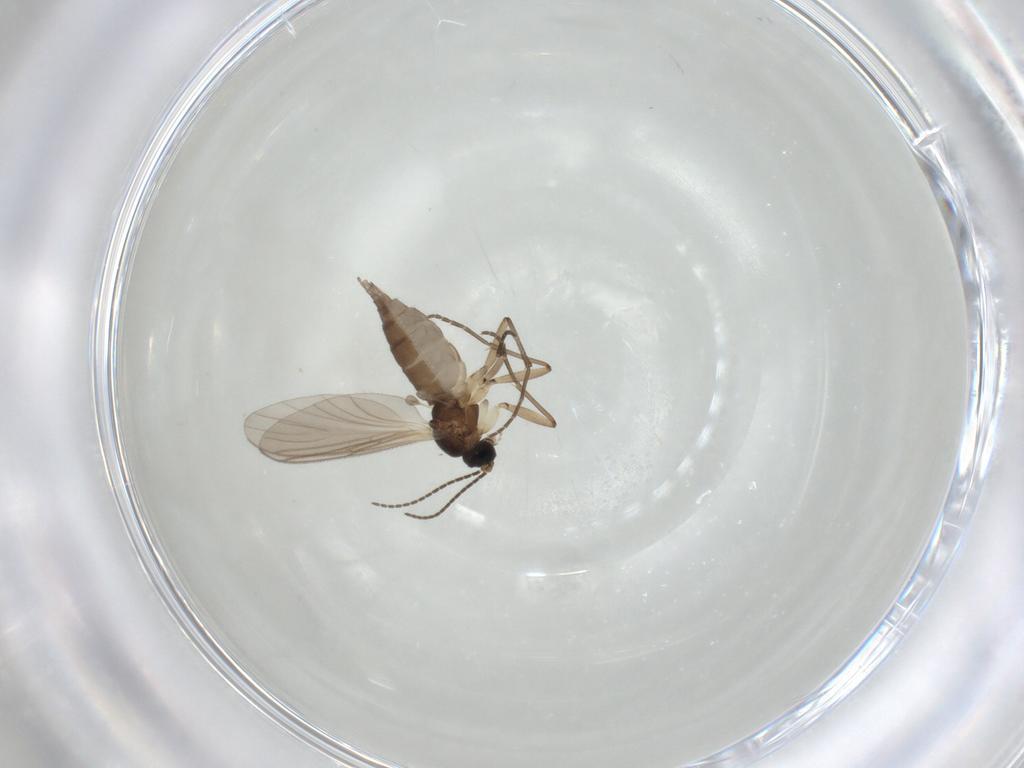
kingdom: Animalia
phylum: Arthropoda
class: Insecta
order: Diptera
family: Sciaridae
